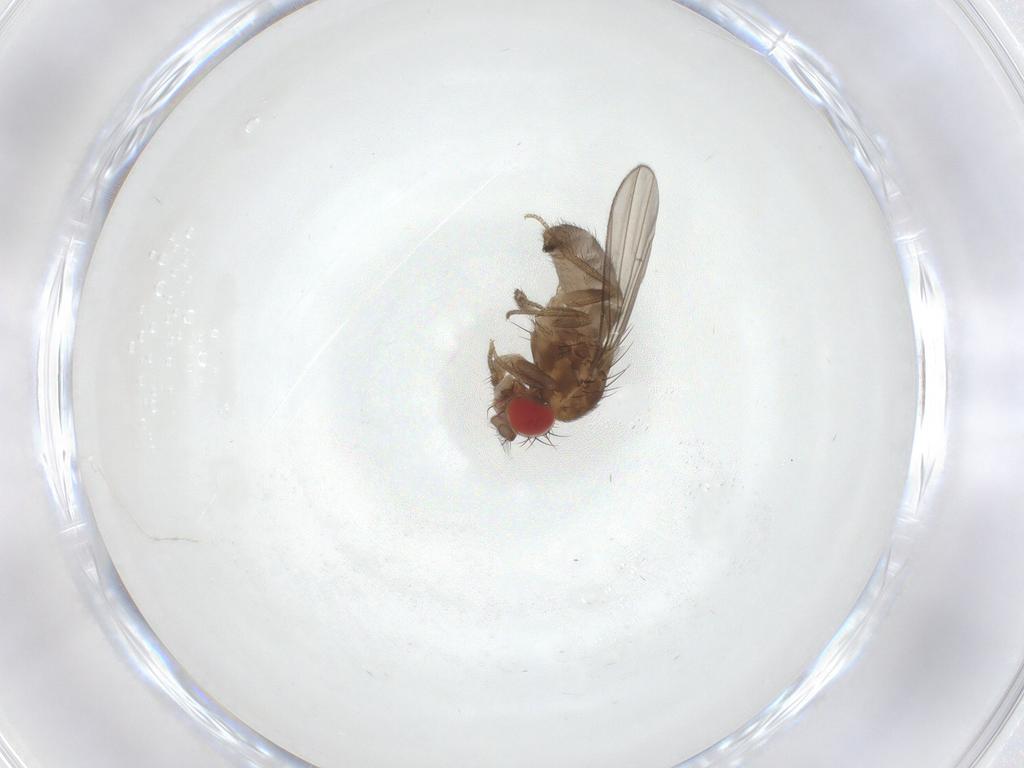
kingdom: Animalia
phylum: Arthropoda
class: Insecta
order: Diptera
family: Drosophilidae
